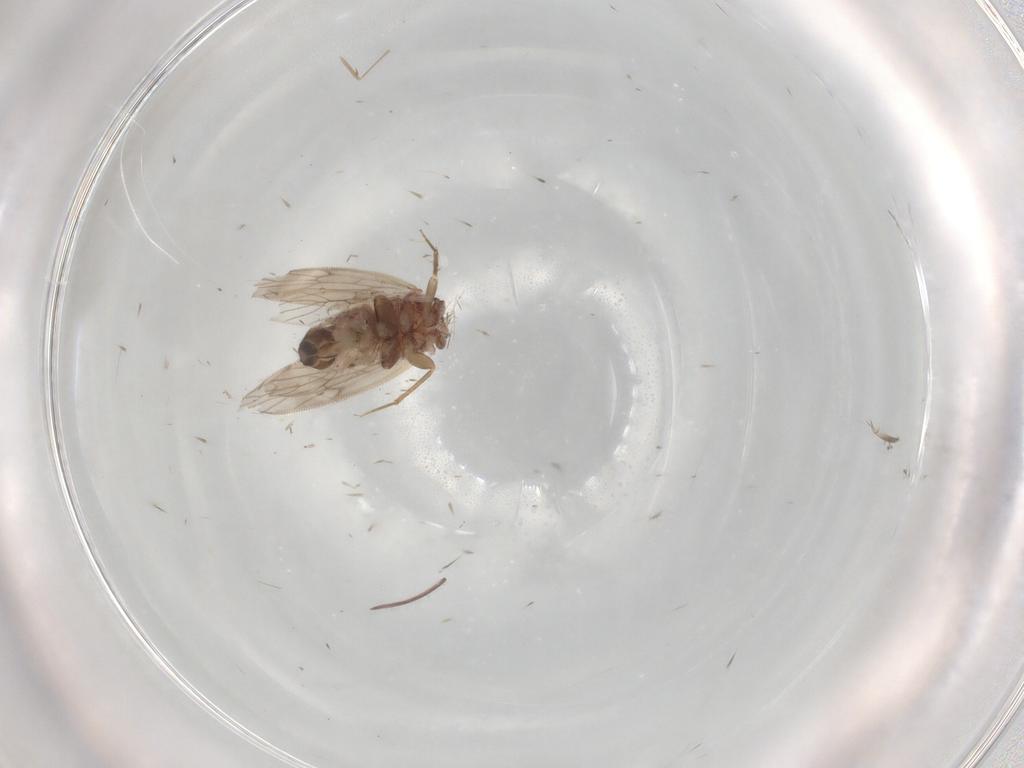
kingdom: Animalia
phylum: Arthropoda
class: Insecta
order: Psocodea
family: Lepidopsocidae
